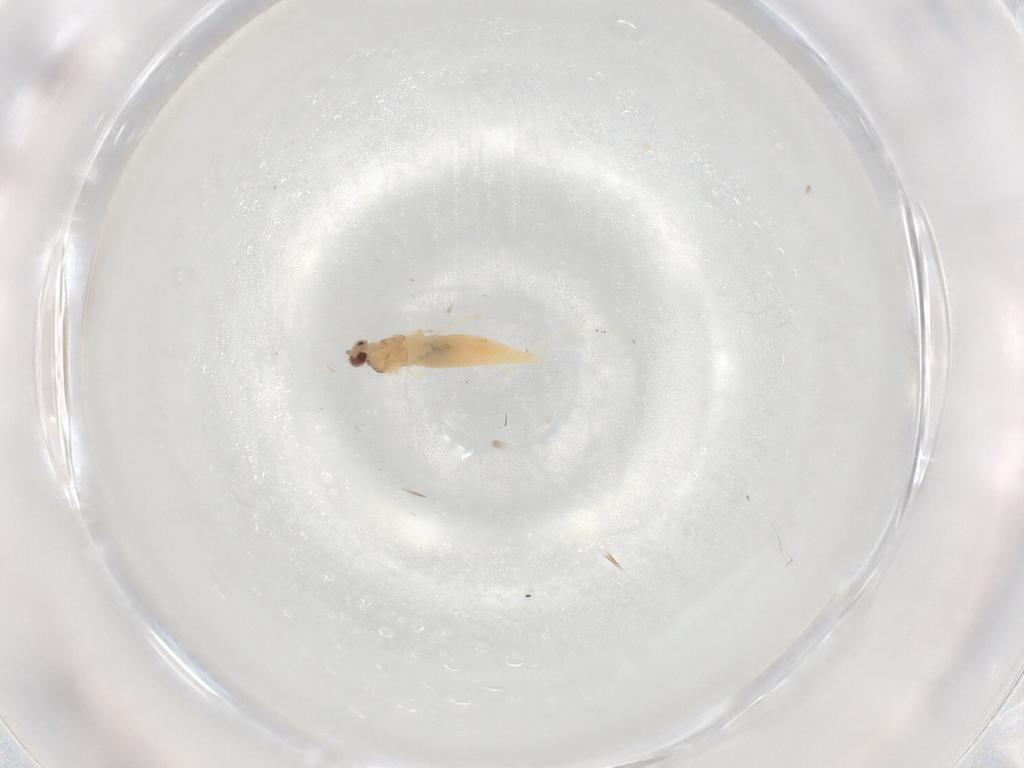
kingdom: Animalia
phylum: Arthropoda
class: Insecta
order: Diptera
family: Cecidomyiidae
